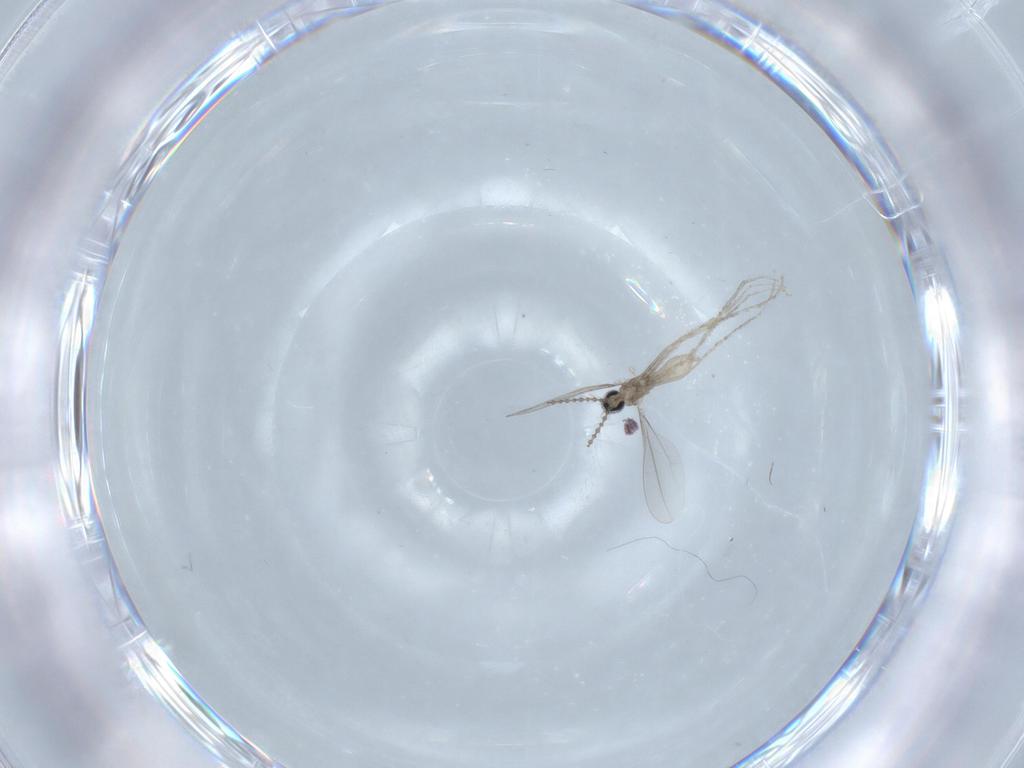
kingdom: Animalia
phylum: Arthropoda
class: Insecta
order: Diptera
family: Cecidomyiidae
